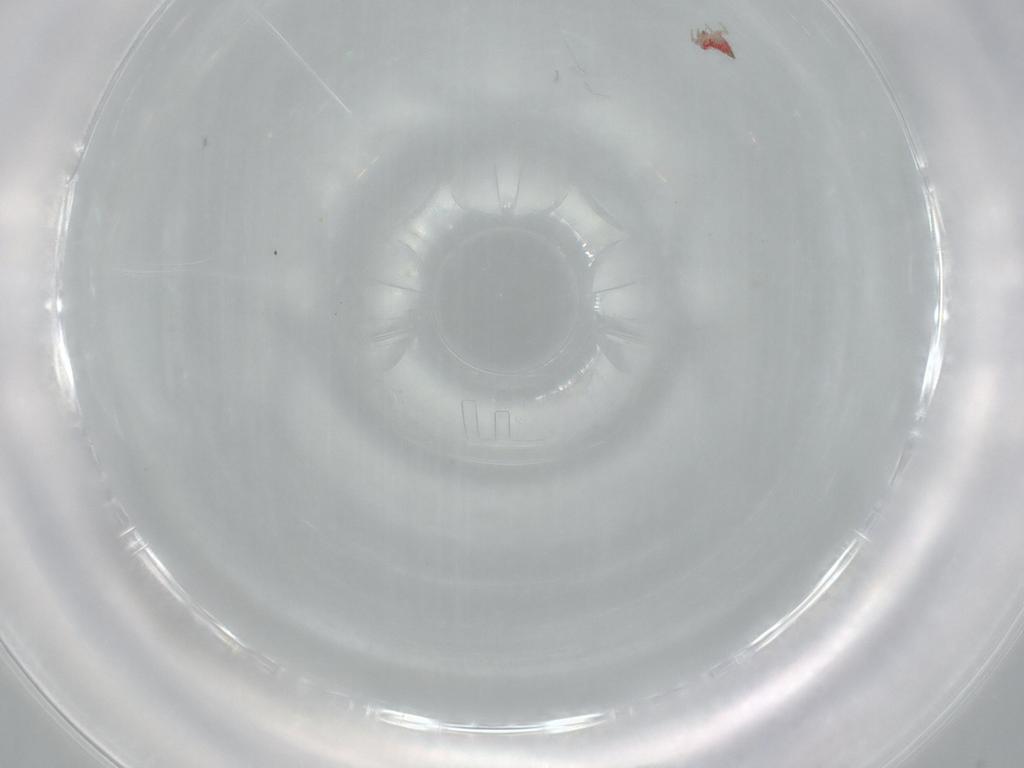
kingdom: Animalia
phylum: Arthropoda
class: Insecta
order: Thysanoptera
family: Phlaeothripidae
